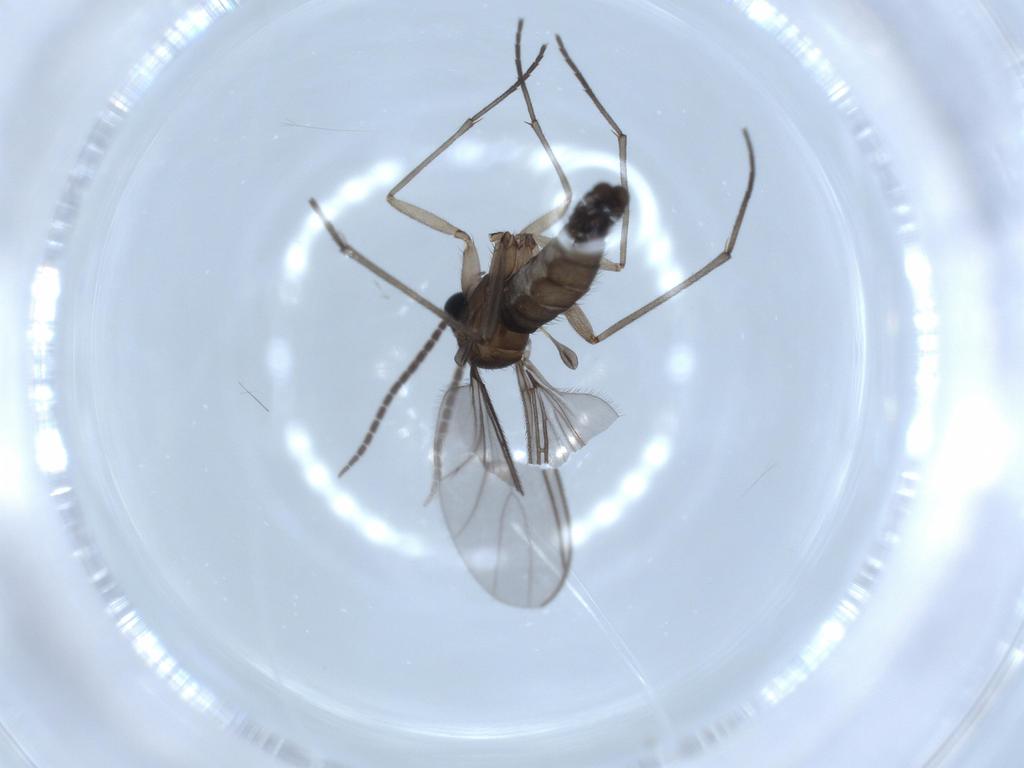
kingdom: Animalia
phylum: Arthropoda
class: Insecta
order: Diptera
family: Sciaridae
